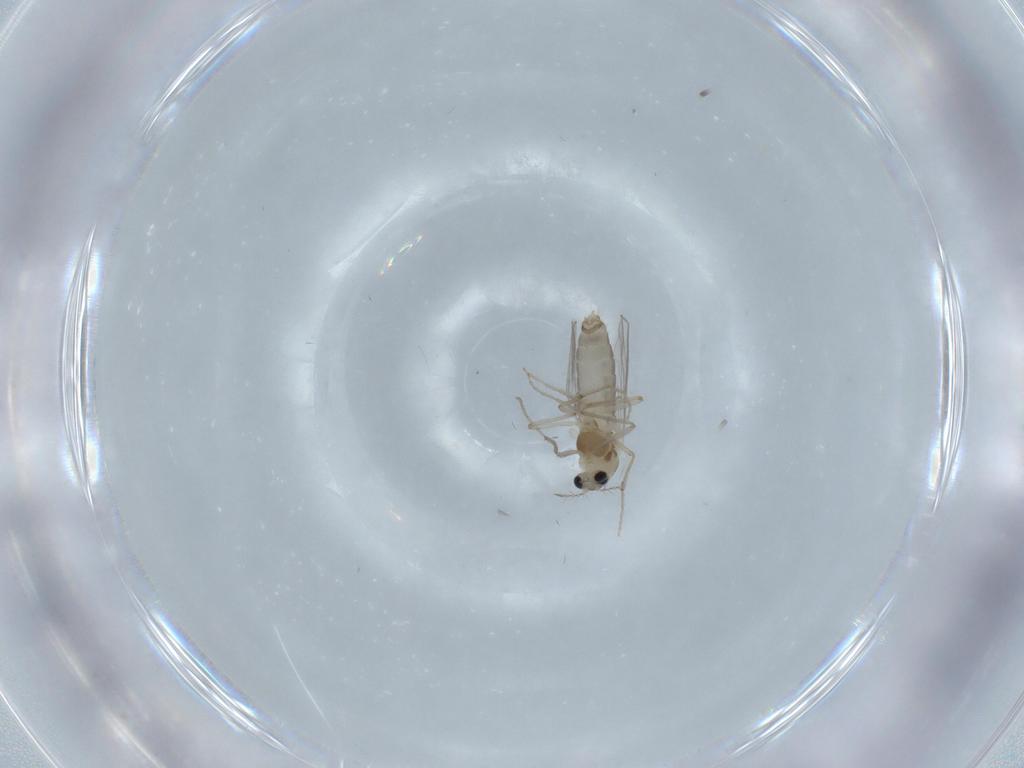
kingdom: Animalia
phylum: Arthropoda
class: Insecta
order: Diptera
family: Chironomidae
